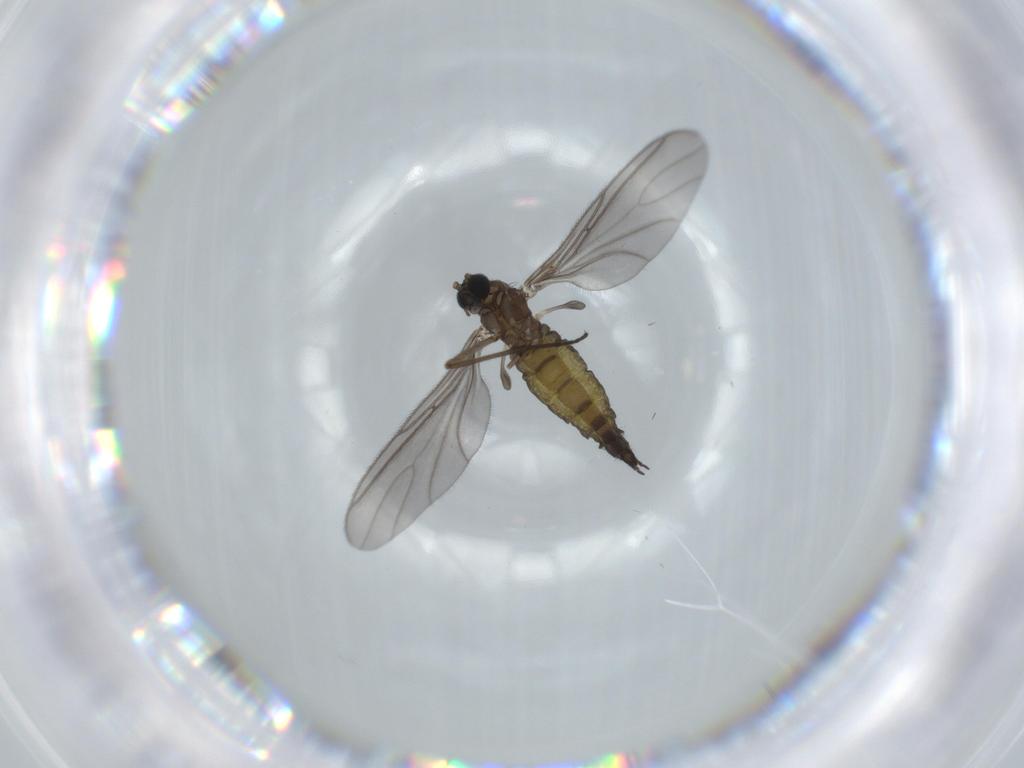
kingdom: Animalia
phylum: Arthropoda
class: Insecta
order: Diptera
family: Sciaridae
